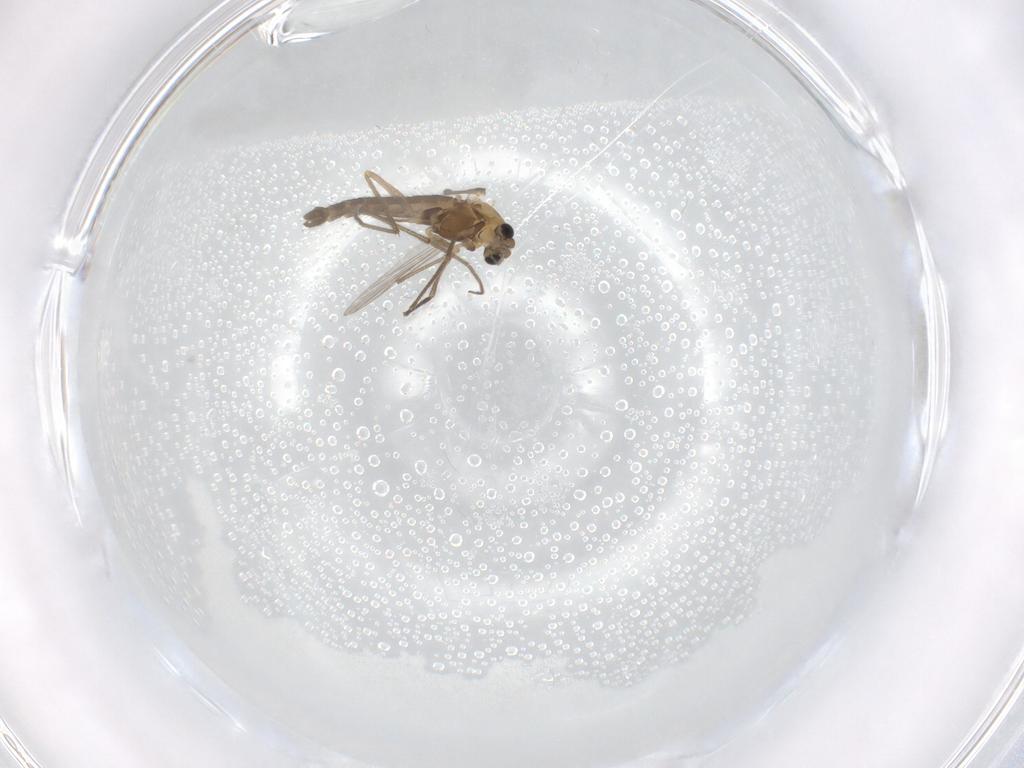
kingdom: Animalia
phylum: Arthropoda
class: Insecta
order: Diptera
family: Chironomidae
